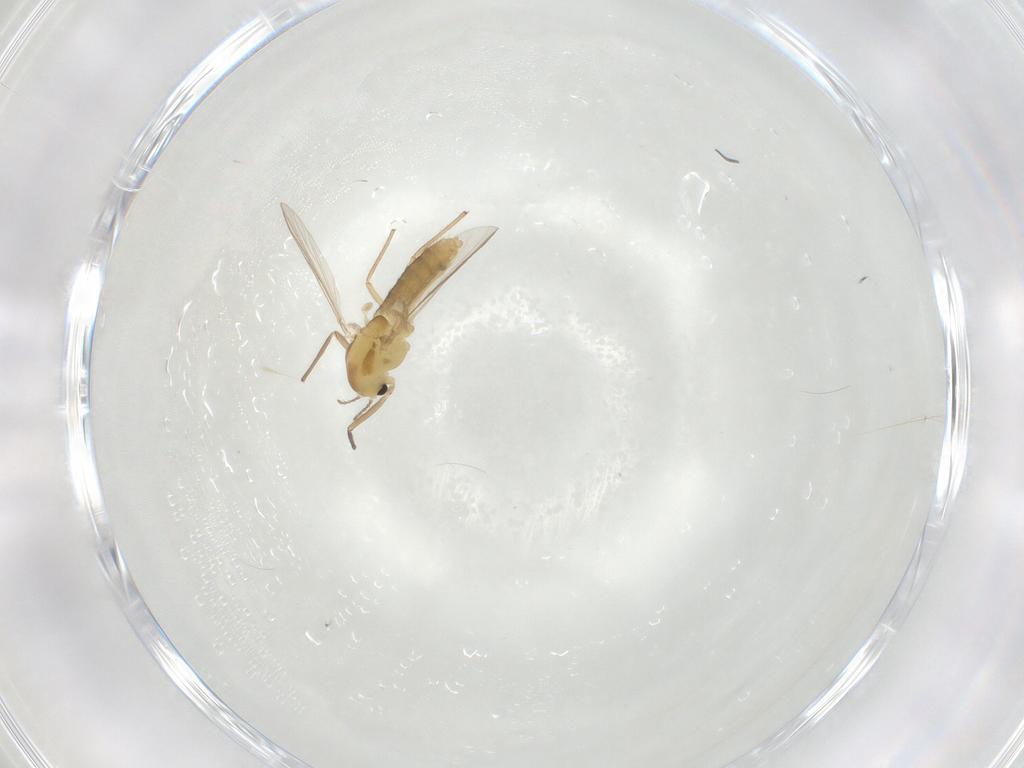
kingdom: Animalia
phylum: Arthropoda
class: Insecta
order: Diptera
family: Chironomidae
